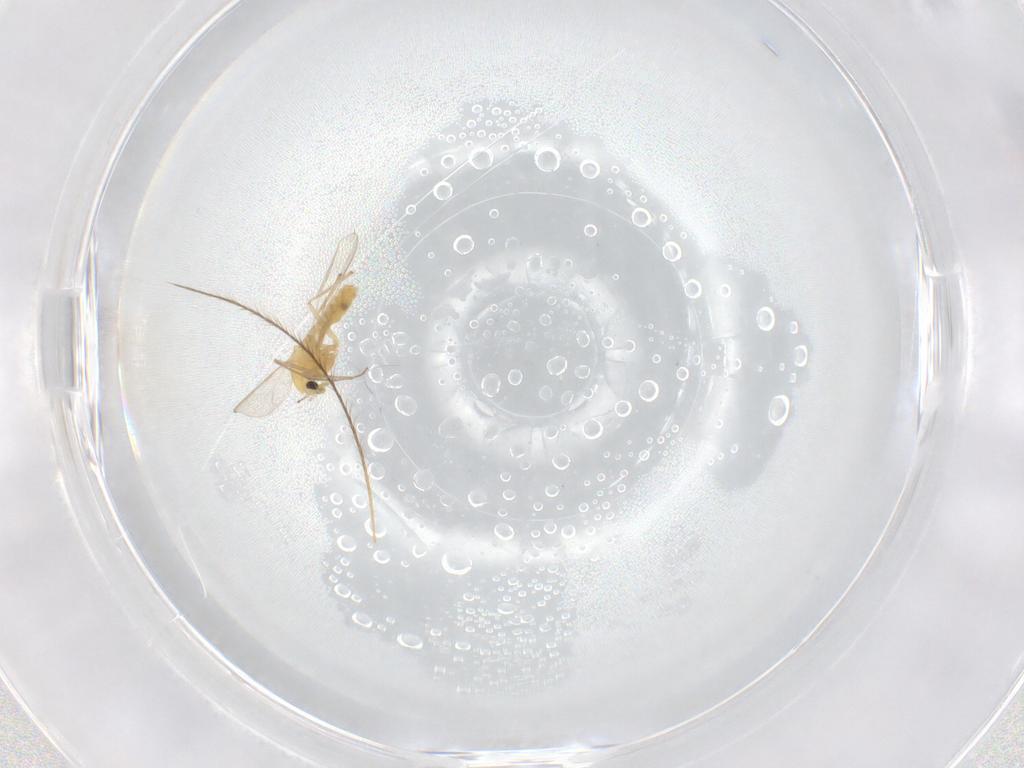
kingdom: Animalia
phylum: Arthropoda
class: Insecta
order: Diptera
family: Chironomidae
